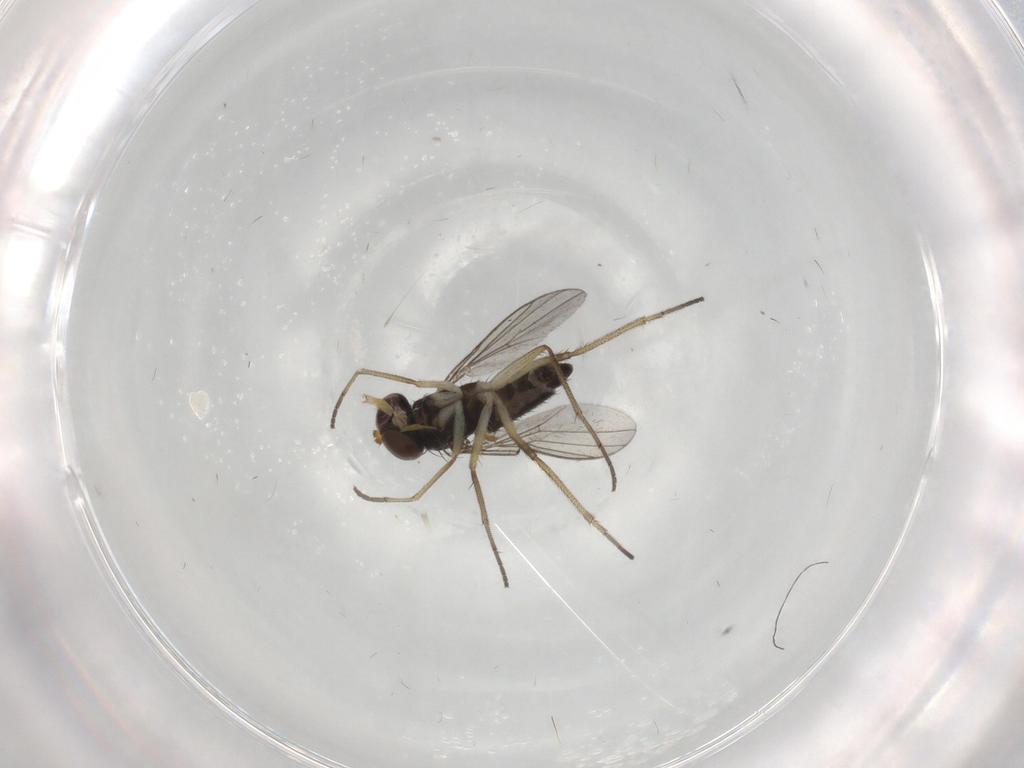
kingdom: Animalia
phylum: Arthropoda
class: Insecta
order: Diptera
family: Dolichopodidae
